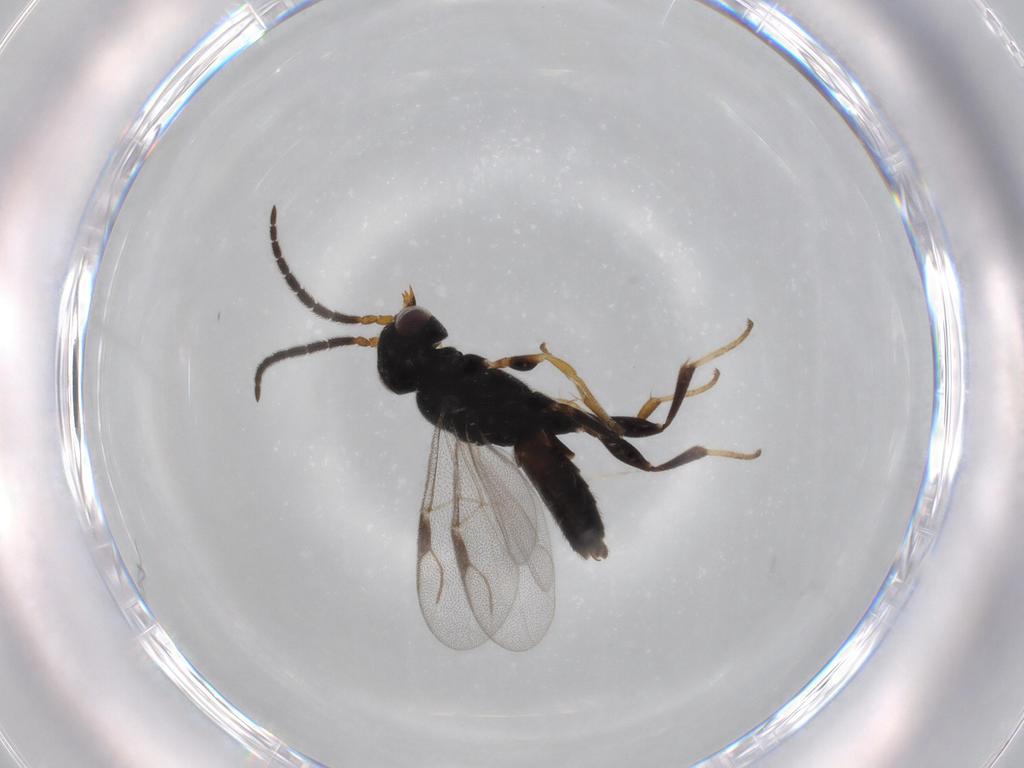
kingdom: Animalia
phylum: Arthropoda
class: Insecta
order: Hymenoptera
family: Dryinidae
